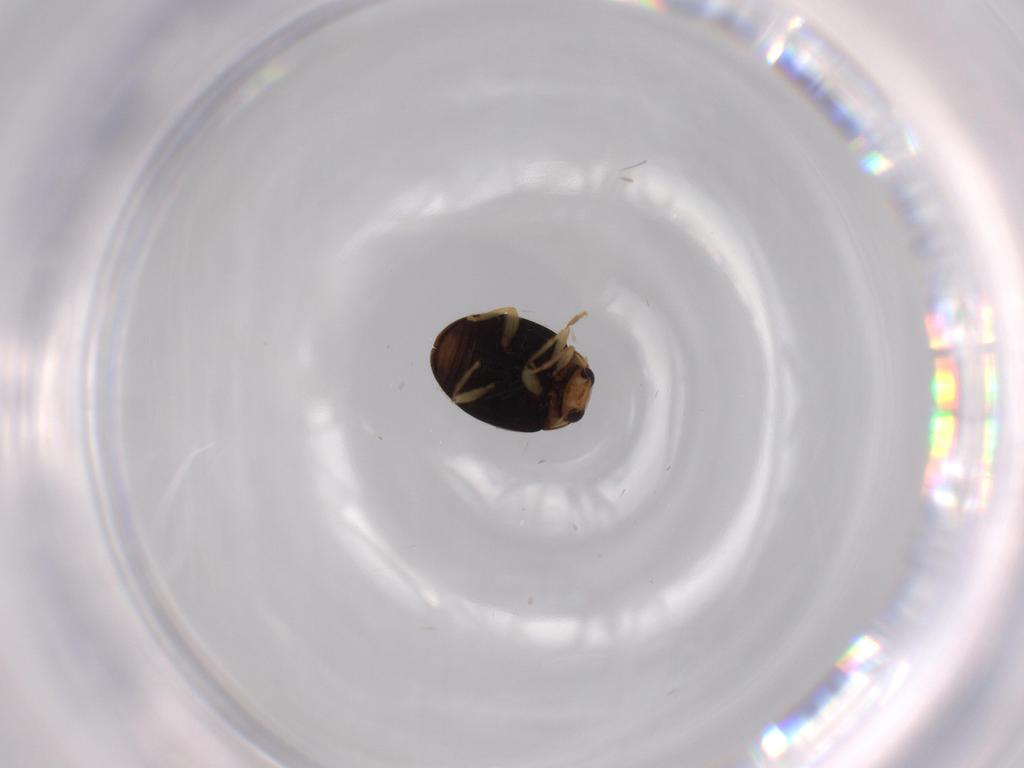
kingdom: Animalia
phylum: Arthropoda
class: Insecta
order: Coleoptera
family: Coccinellidae
